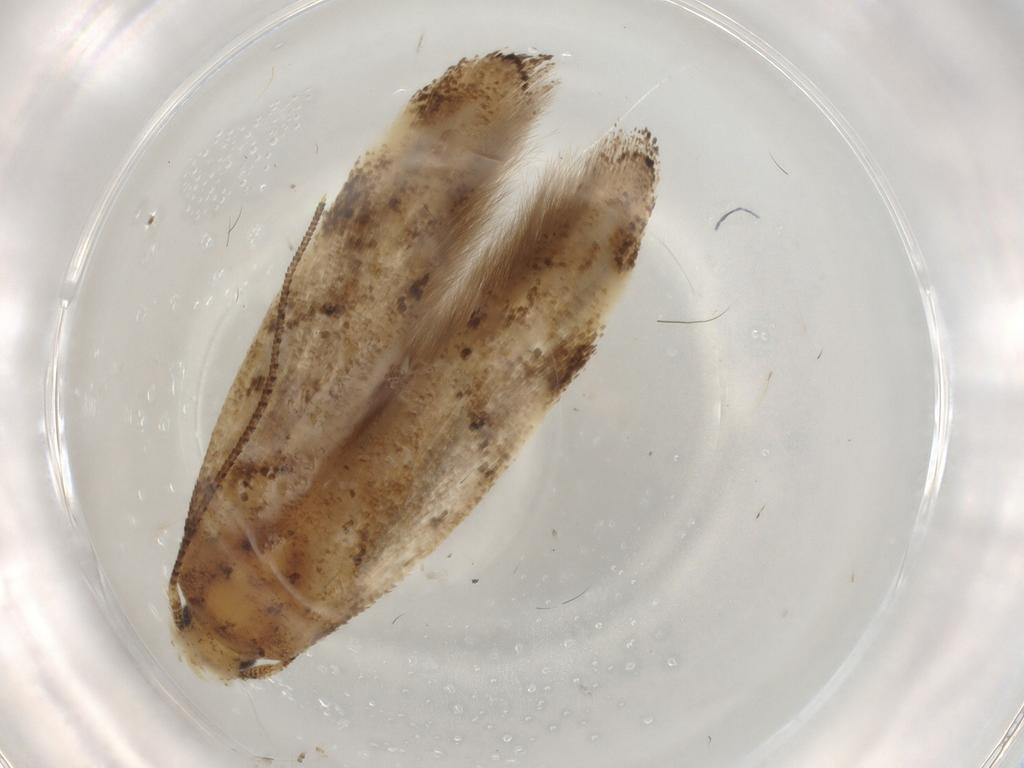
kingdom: Animalia
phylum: Arthropoda
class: Insecta
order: Lepidoptera
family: Momphidae
